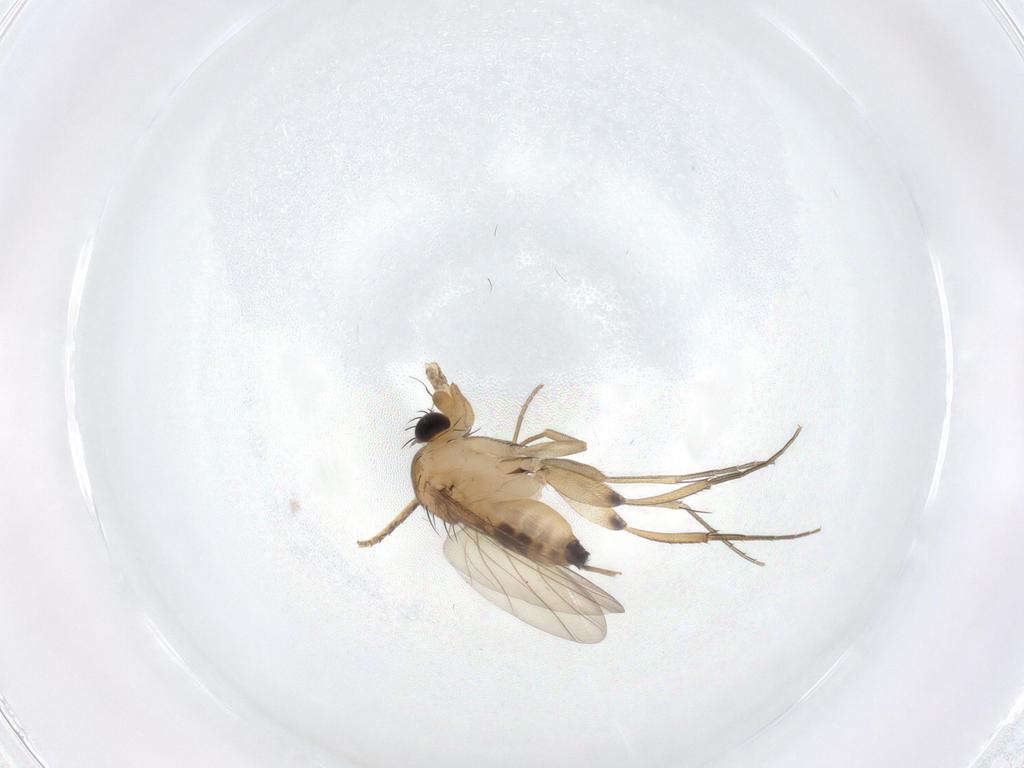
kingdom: Animalia
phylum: Arthropoda
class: Insecta
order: Diptera
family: Phoridae
